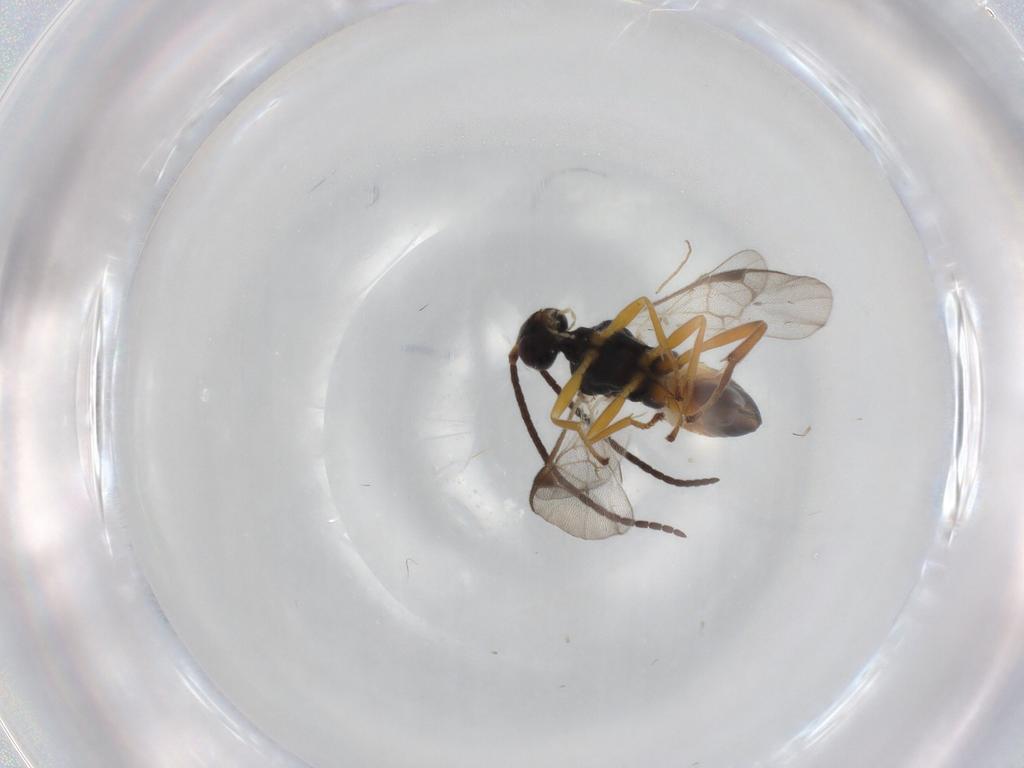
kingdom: Animalia
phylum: Arthropoda
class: Insecta
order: Hymenoptera
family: Braconidae
